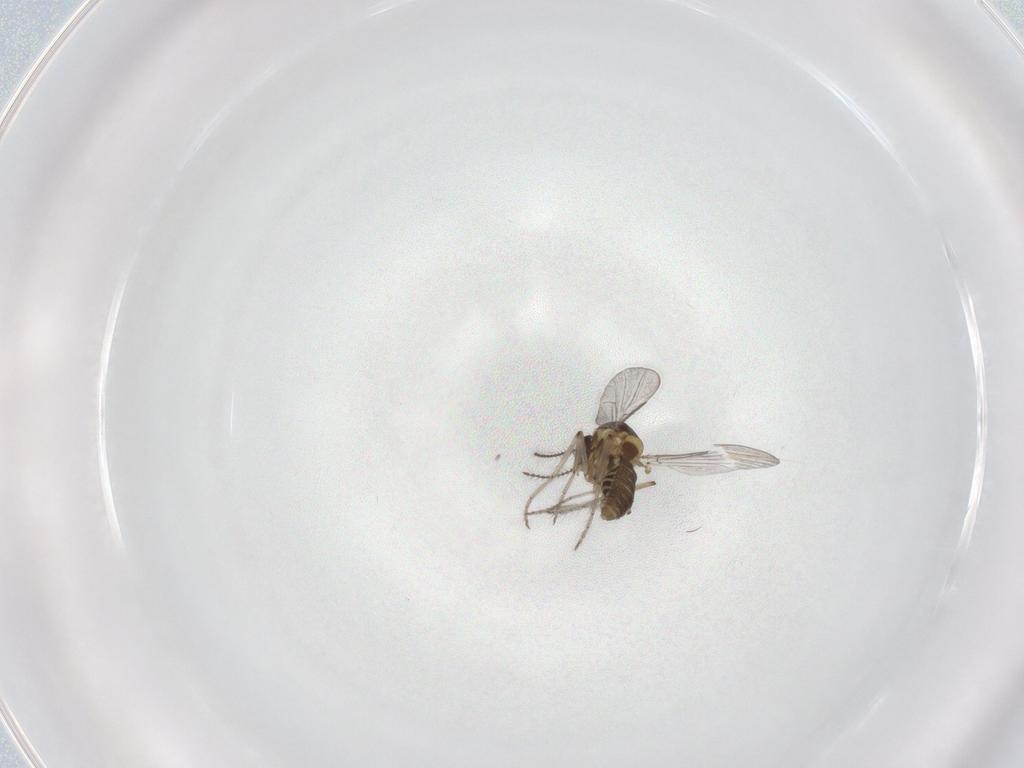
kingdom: Animalia
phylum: Arthropoda
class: Insecta
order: Diptera
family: Ceratopogonidae
